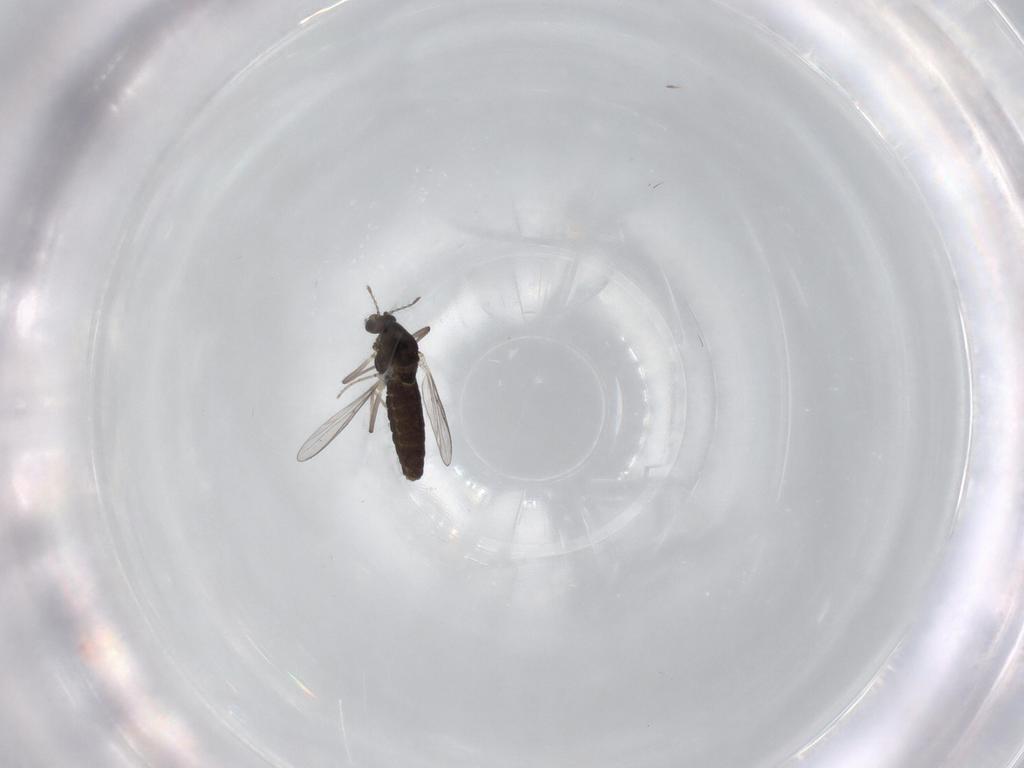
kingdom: Animalia
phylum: Arthropoda
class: Insecta
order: Diptera
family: Chironomidae
